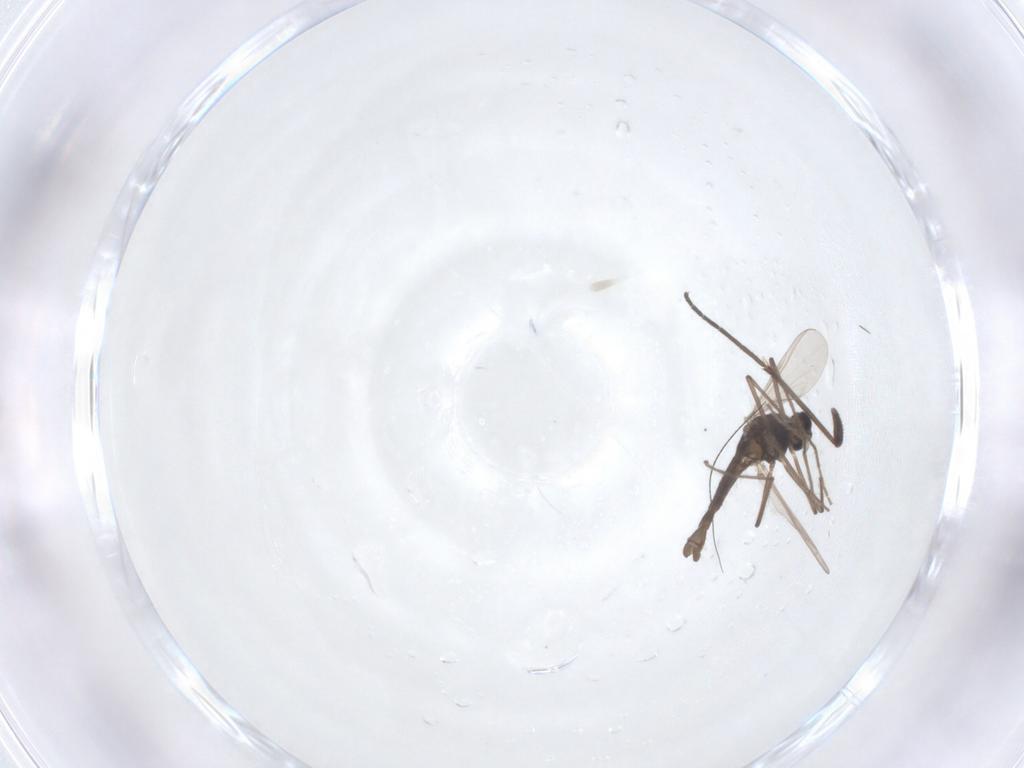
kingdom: Animalia
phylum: Arthropoda
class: Insecta
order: Diptera
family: Chironomidae
